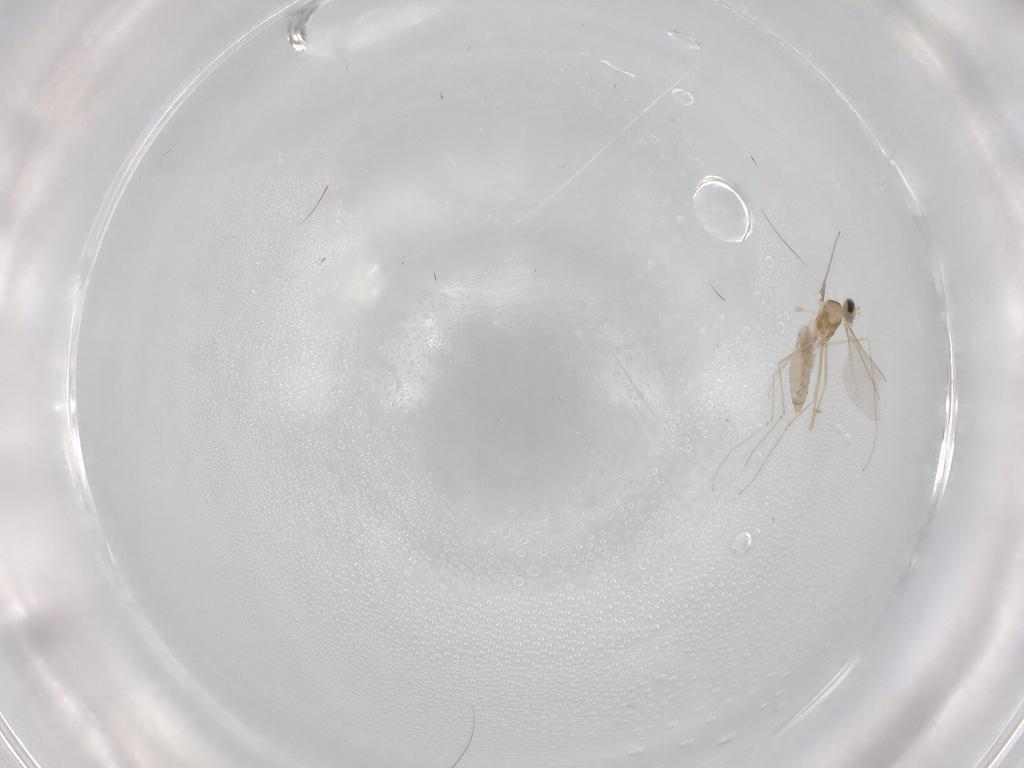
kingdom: Animalia
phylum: Arthropoda
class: Insecta
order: Diptera
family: Cecidomyiidae
